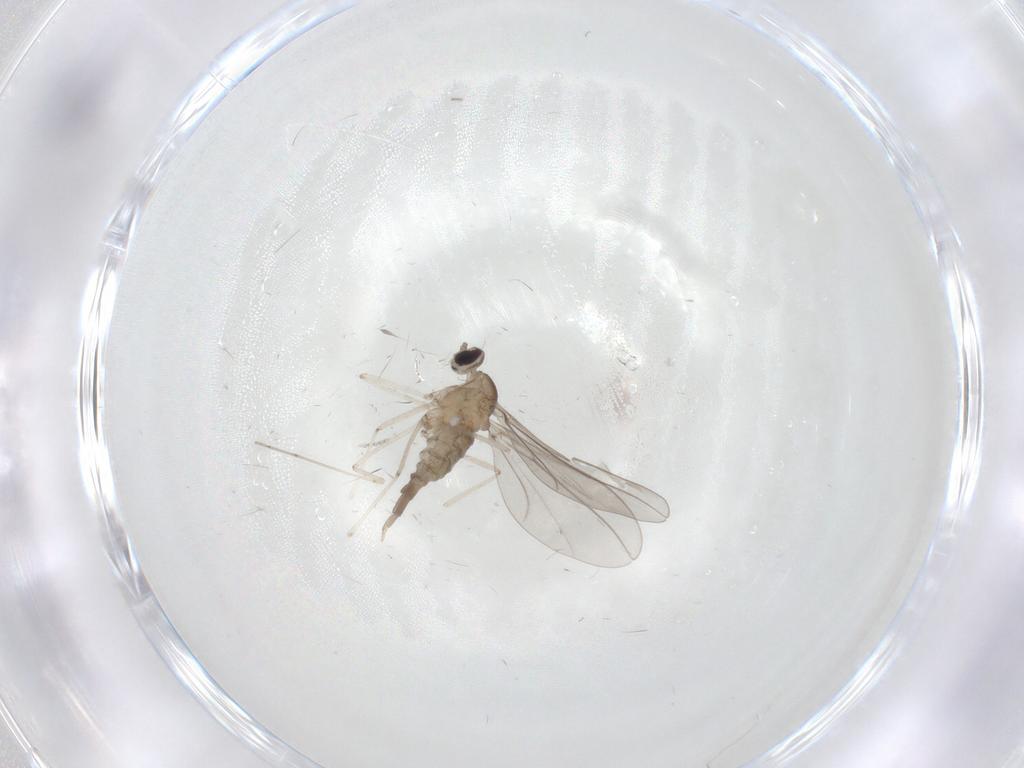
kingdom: Animalia
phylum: Arthropoda
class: Insecta
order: Diptera
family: Cecidomyiidae
